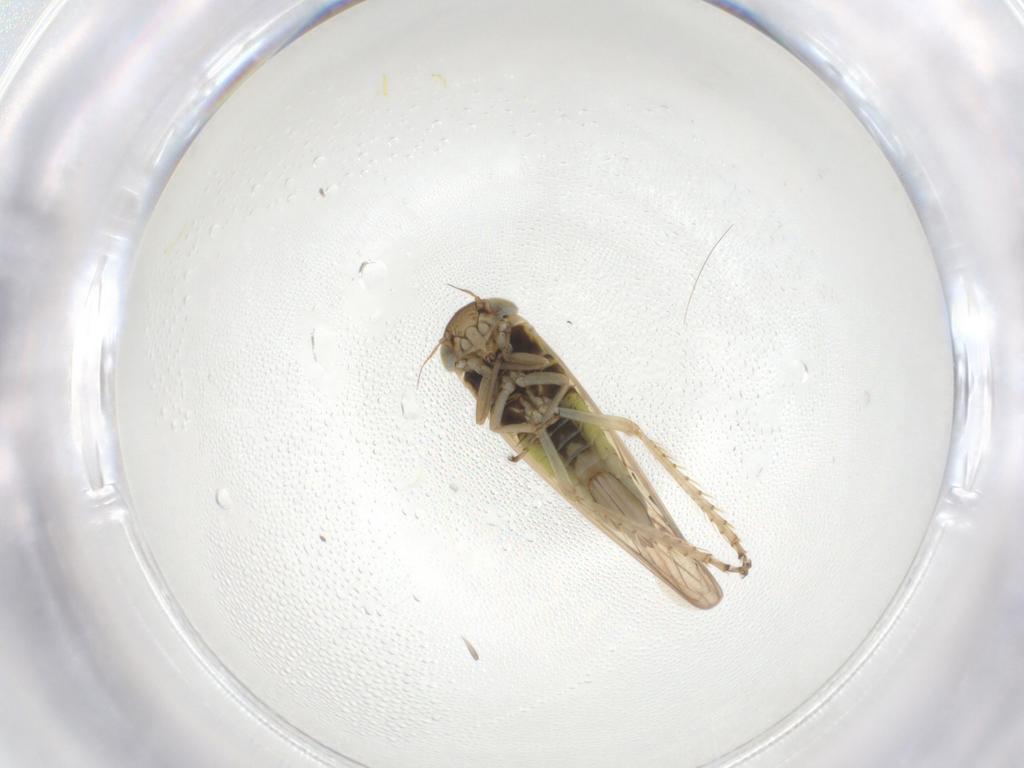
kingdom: Animalia
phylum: Arthropoda
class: Insecta
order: Hemiptera
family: Cicadellidae
